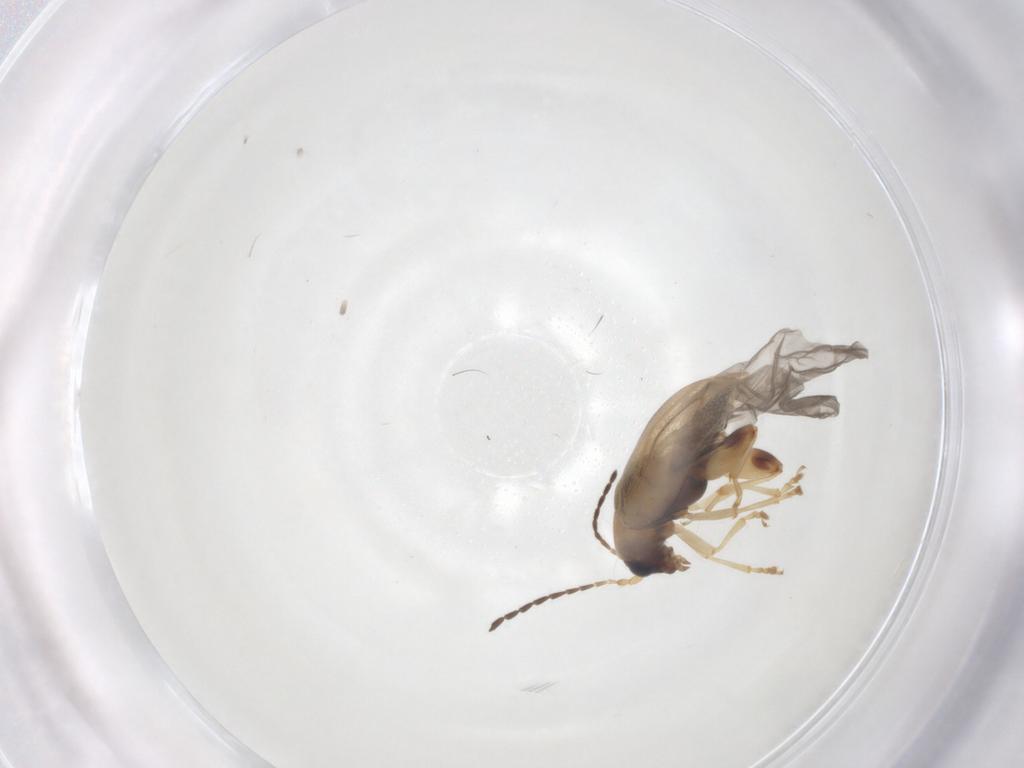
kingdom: Animalia
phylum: Arthropoda
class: Insecta
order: Coleoptera
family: Chrysomelidae
